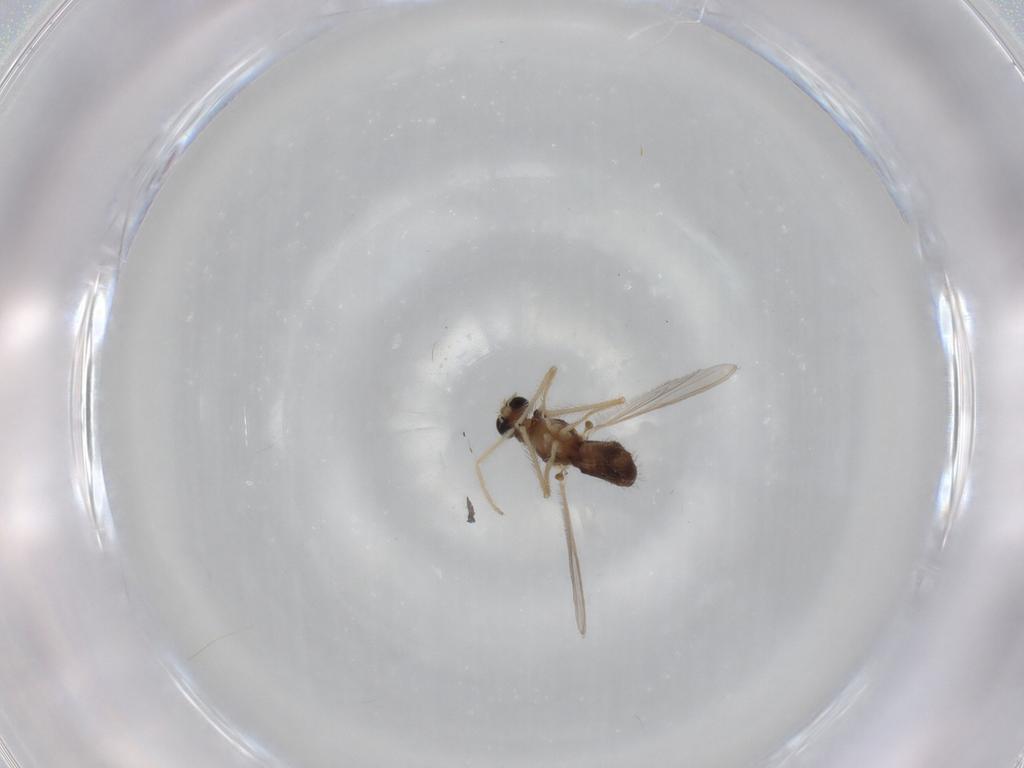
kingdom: Animalia
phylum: Arthropoda
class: Insecta
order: Diptera
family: Chironomidae
